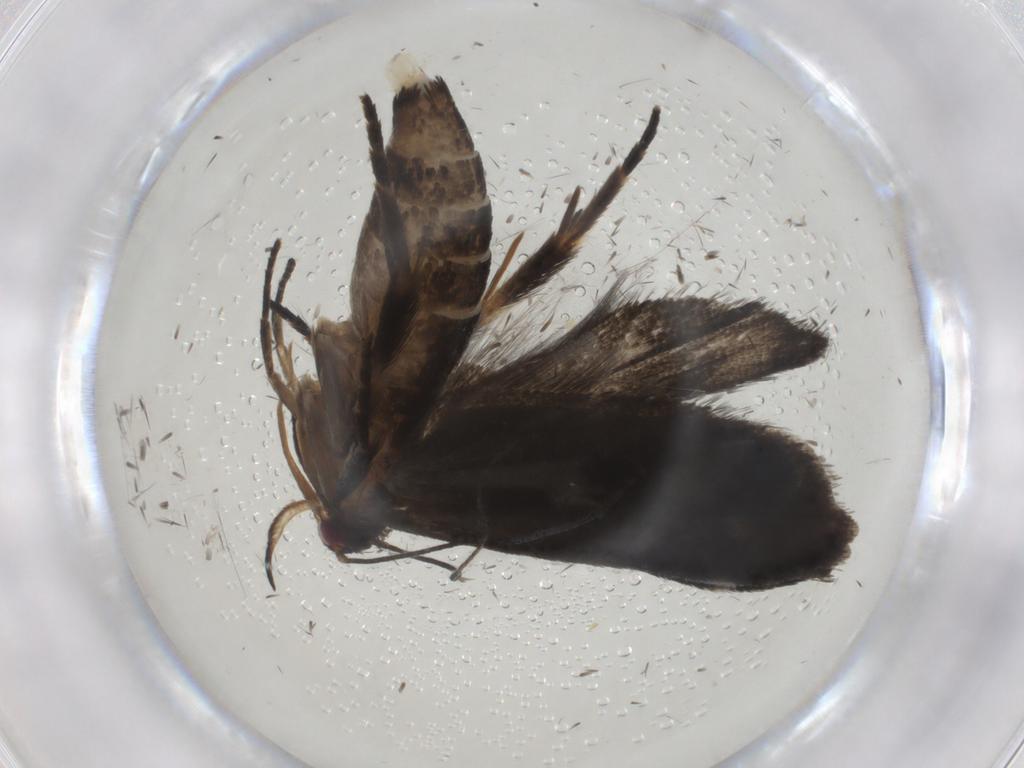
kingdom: Animalia
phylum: Arthropoda
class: Insecta
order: Lepidoptera
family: Gelechiidae
